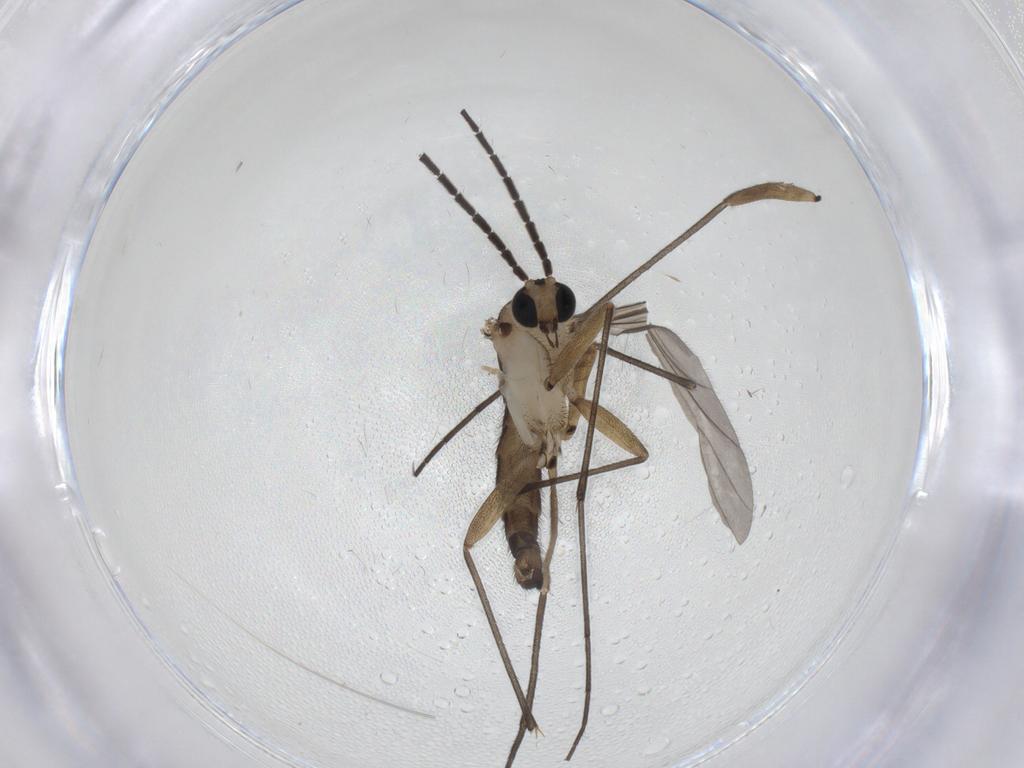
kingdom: Animalia
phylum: Arthropoda
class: Insecta
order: Diptera
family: Sciaridae
